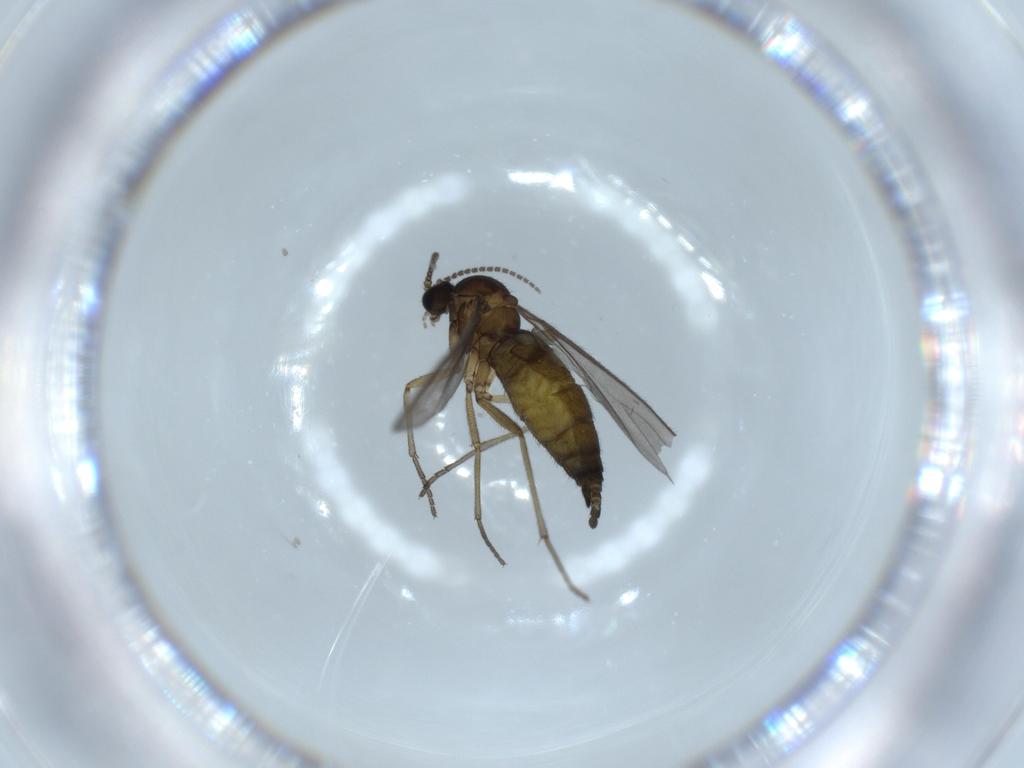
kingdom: Animalia
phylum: Arthropoda
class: Insecta
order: Diptera
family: Sciaridae
